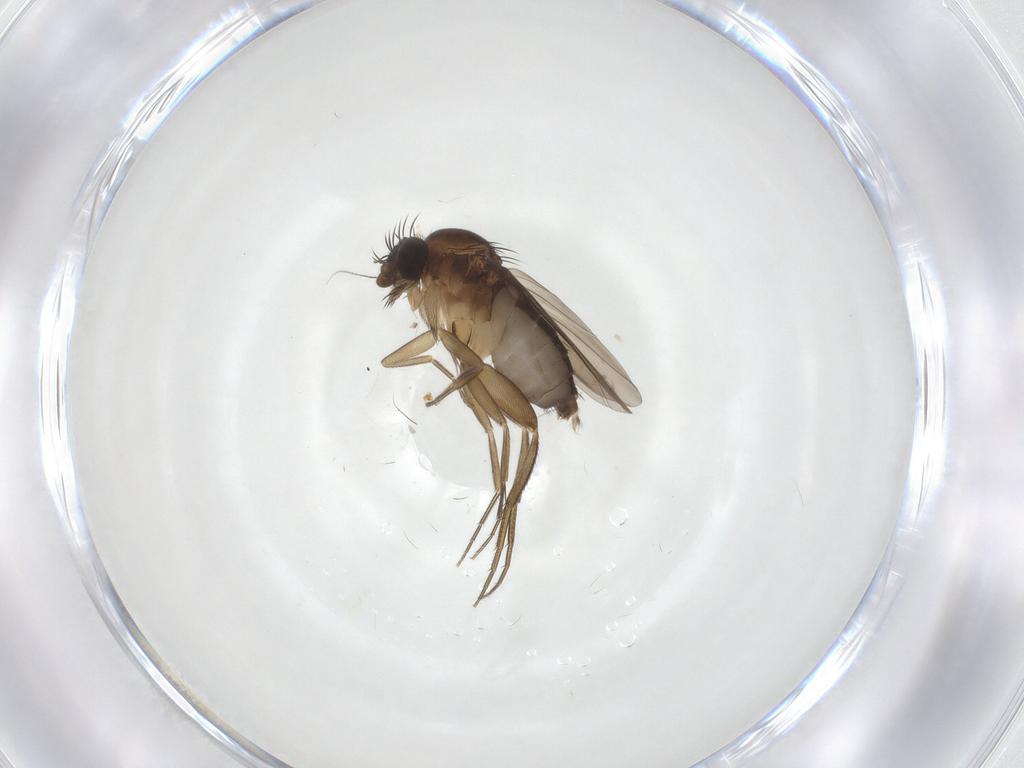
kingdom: Animalia
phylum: Arthropoda
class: Insecta
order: Diptera
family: Phoridae
